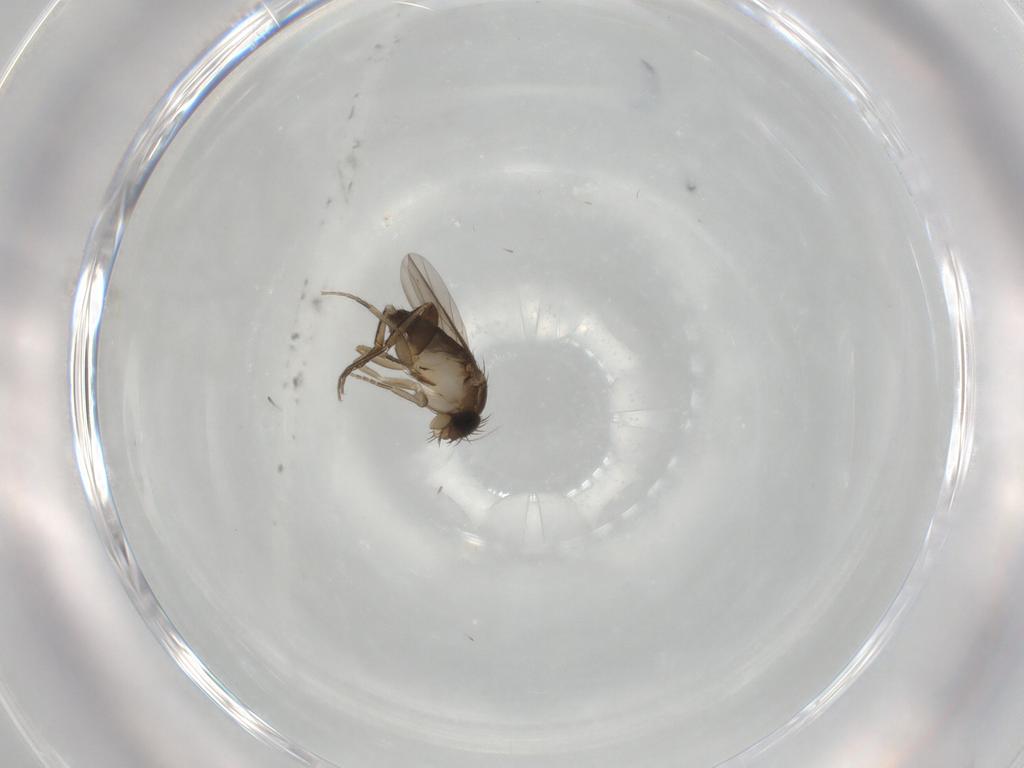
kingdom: Animalia
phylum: Arthropoda
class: Insecta
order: Diptera
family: Phoridae
